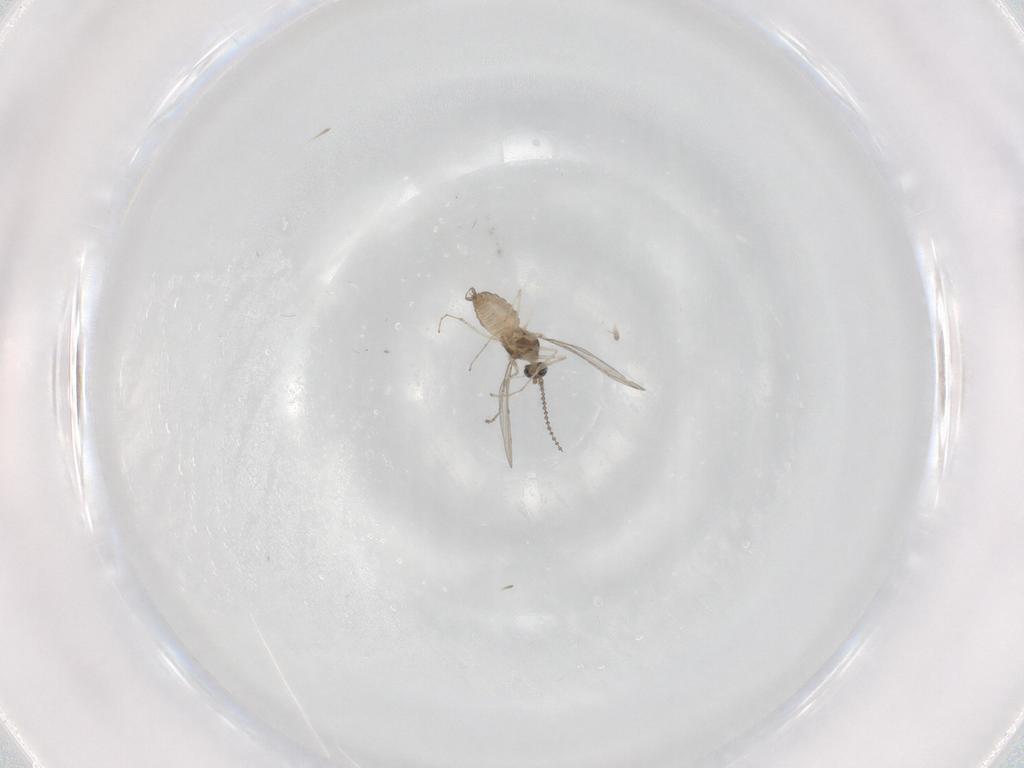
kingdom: Animalia
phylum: Arthropoda
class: Insecta
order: Diptera
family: Cecidomyiidae
